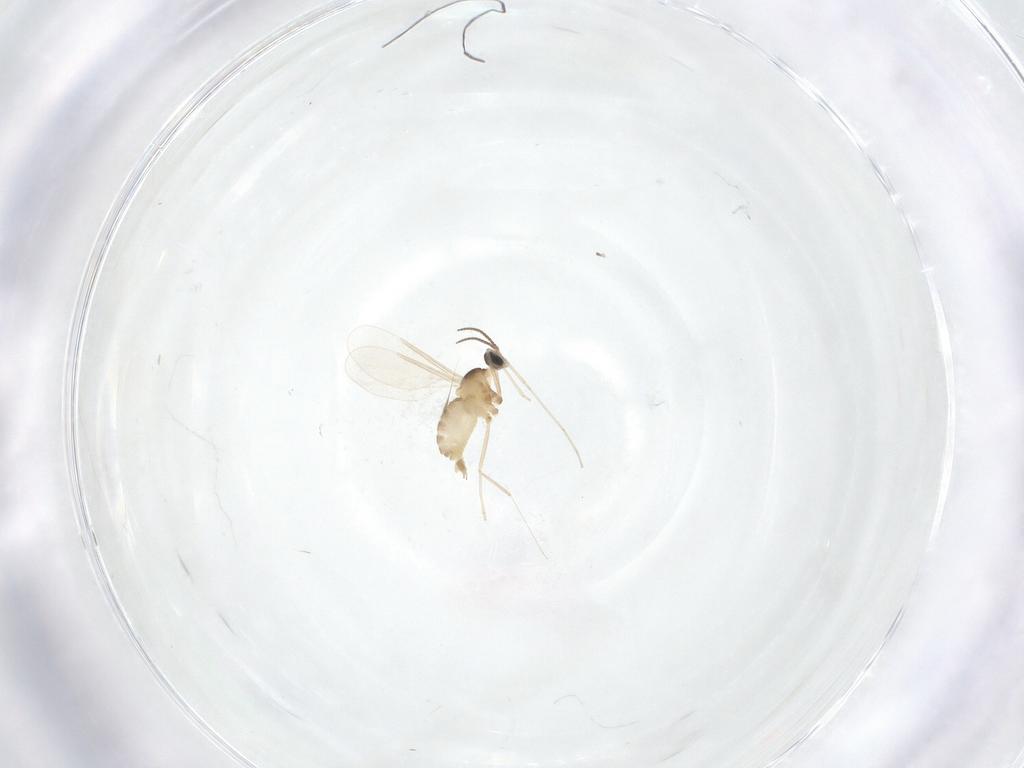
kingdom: Animalia
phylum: Arthropoda
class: Insecta
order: Diptera
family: Cecidomyiidae
